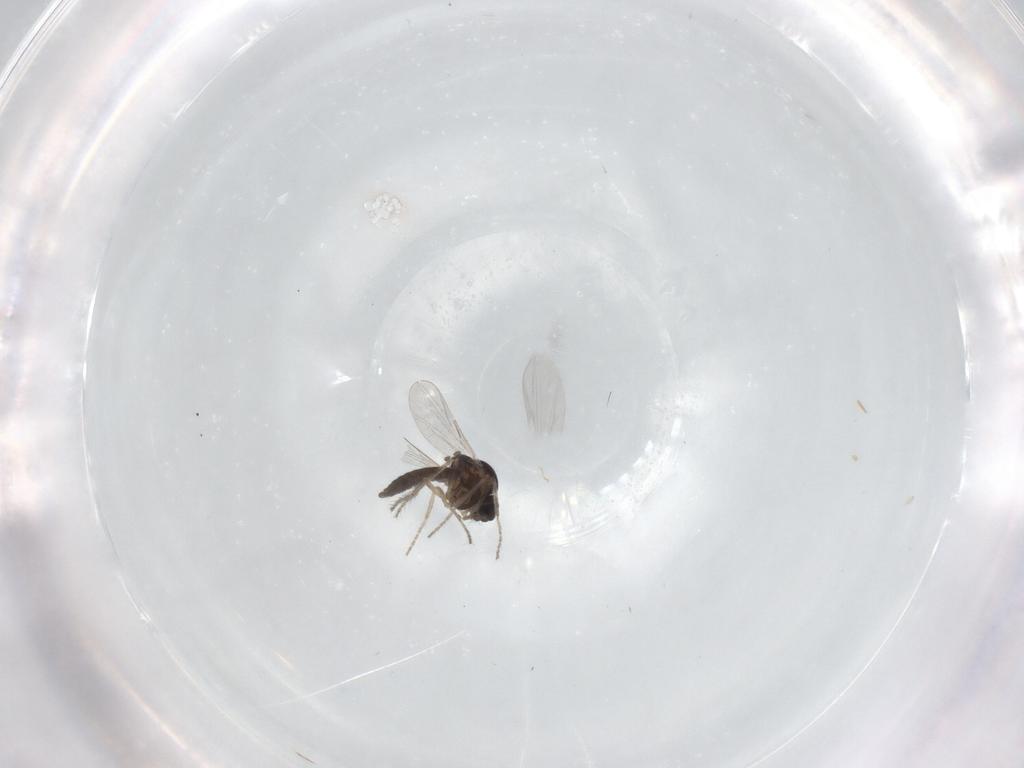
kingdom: Animalia
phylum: Arthropoda
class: Insecta
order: Diptera
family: Ceratopogonidae
